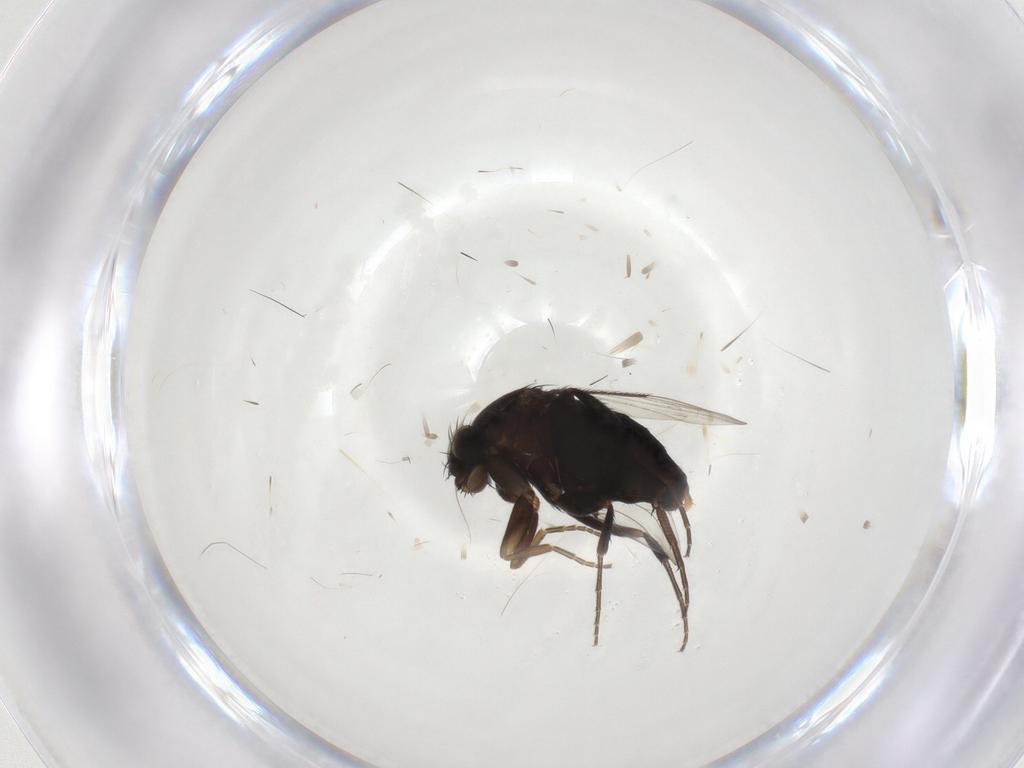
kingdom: Animalia
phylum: Arthropoda
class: Insecta
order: Diptera
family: Phoridae
